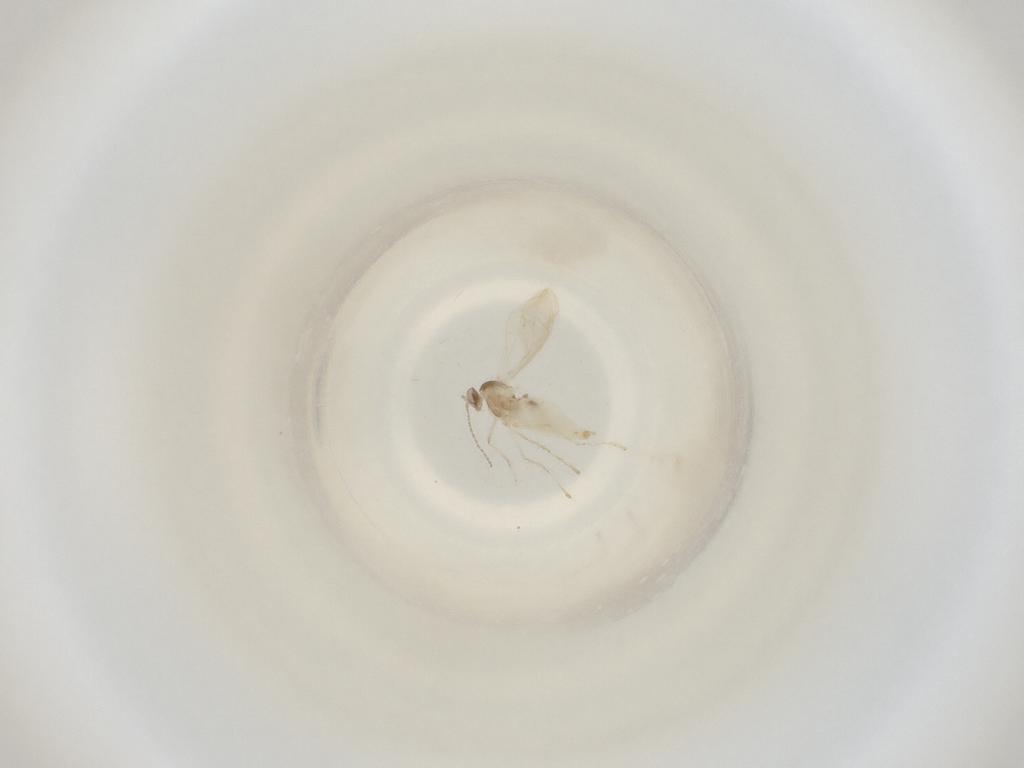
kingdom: Animalia
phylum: Arthropoda
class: Insecta
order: Diptera
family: Cecidomyiidae
